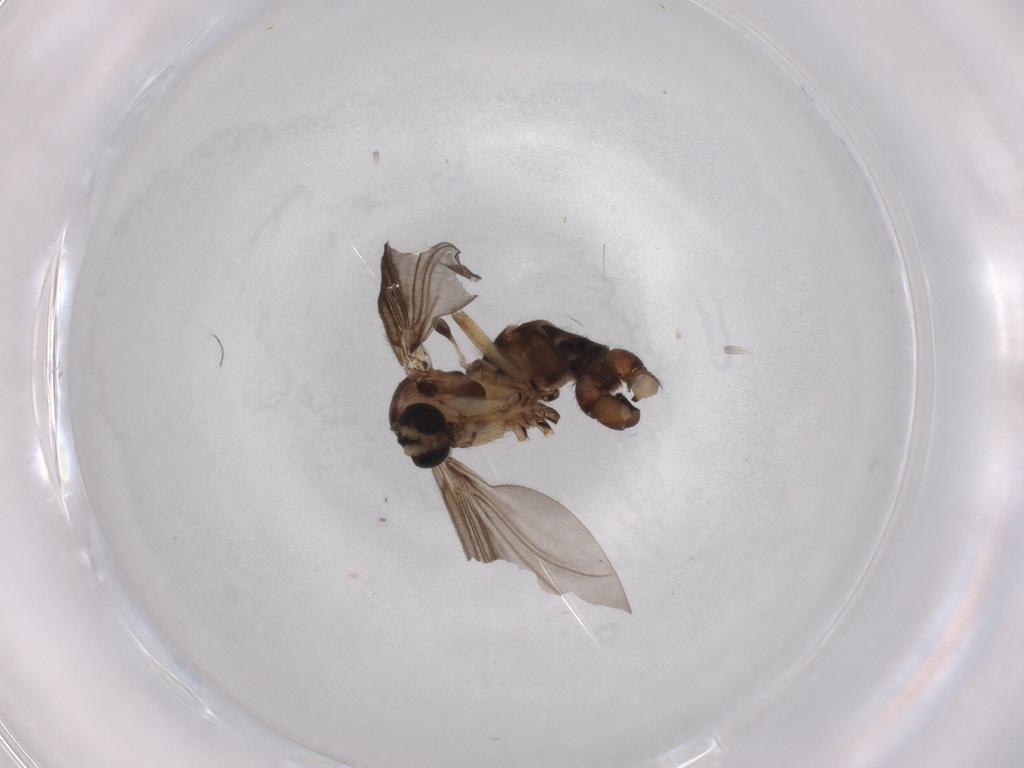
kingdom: Animalia
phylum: Arthropoda
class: Insecta
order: Diptera
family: Sciaridae
